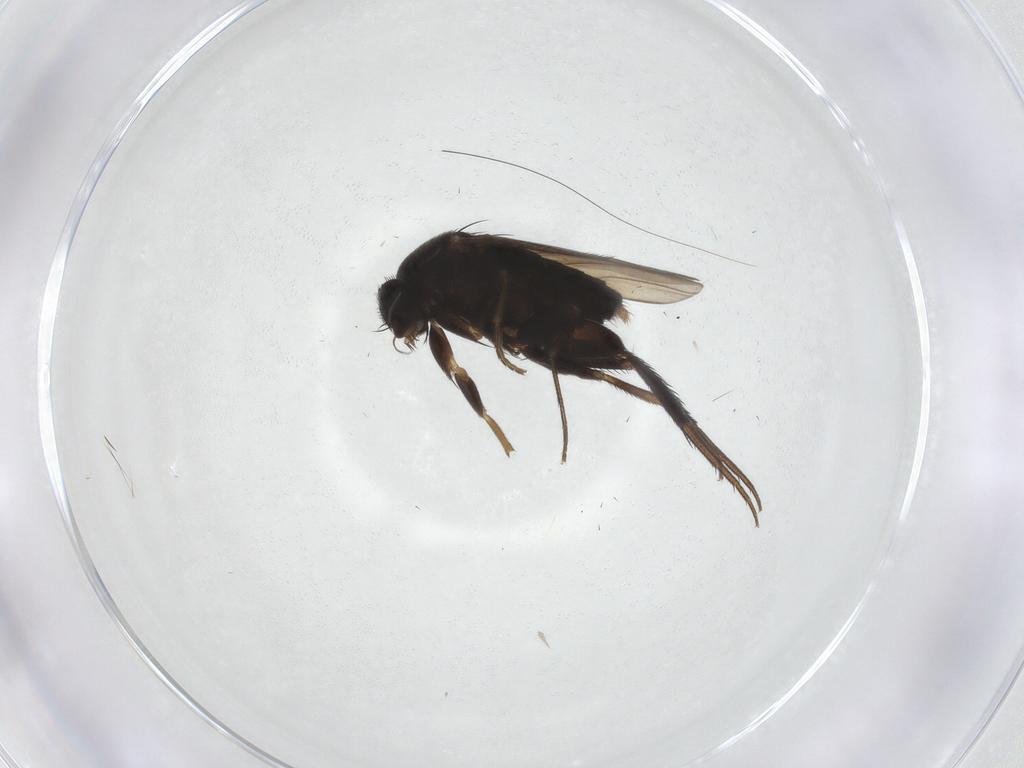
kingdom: Animalia
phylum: Arthropoda
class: Insecta
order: Diptera
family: Phoridae
